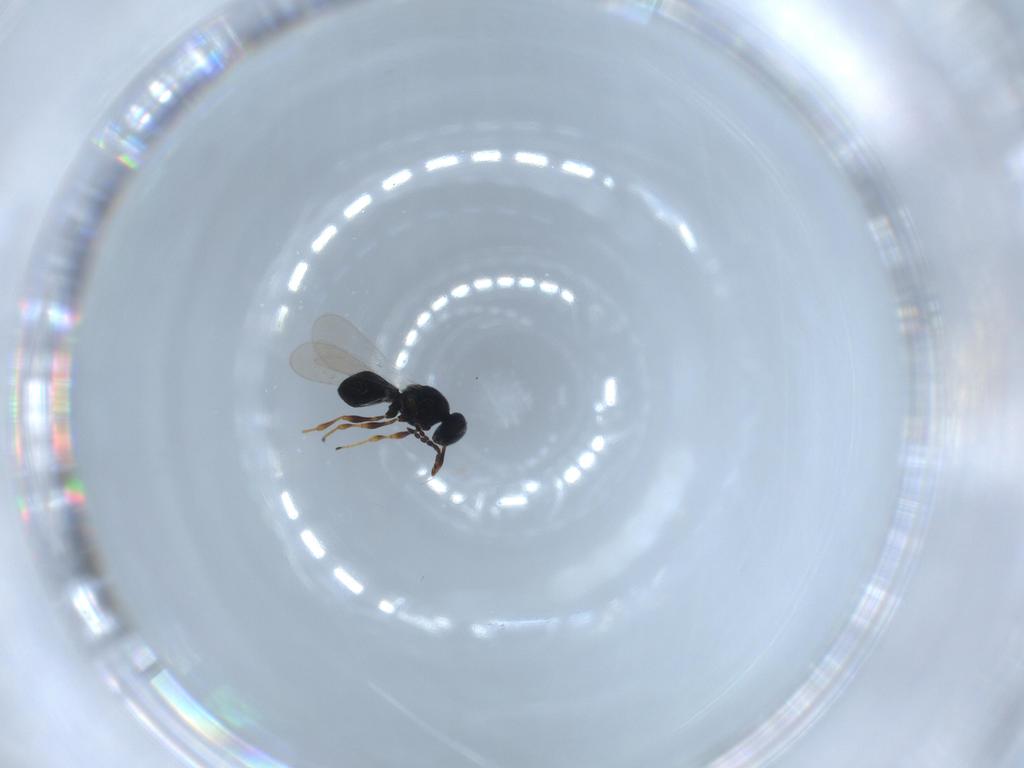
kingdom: Animalia
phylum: Arthropoda
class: Insecta
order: Hymenoptera
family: Platygastridae
